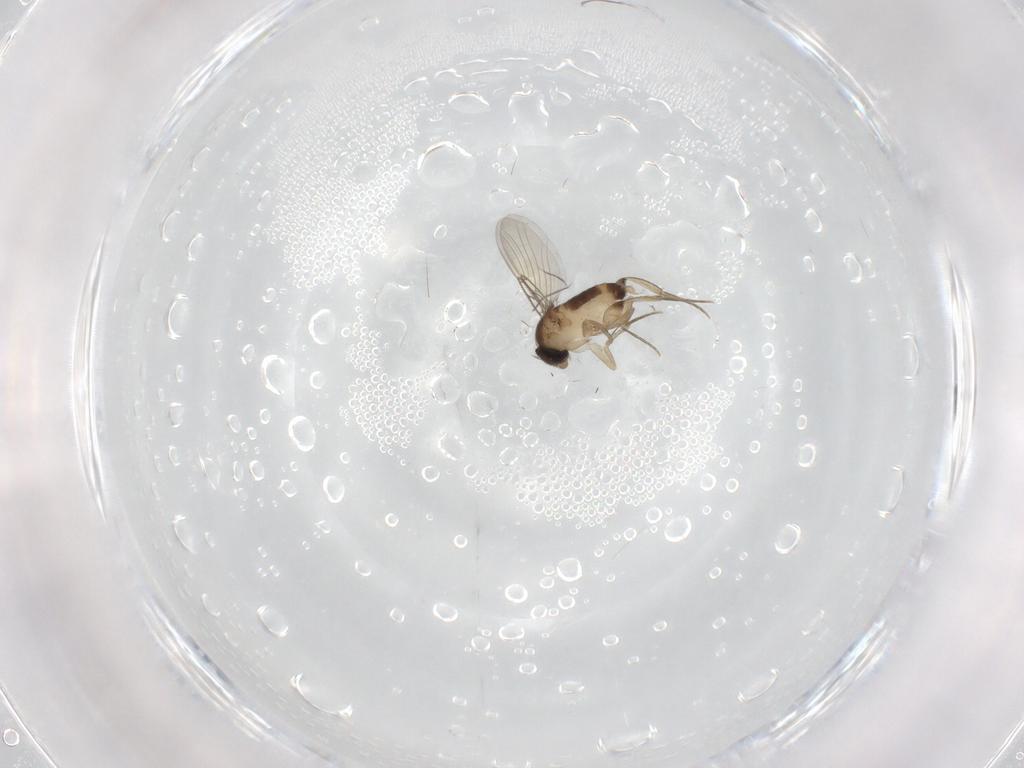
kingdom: Animalia
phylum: Arthropoda
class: Insecta
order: Diptera
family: Phoridae
